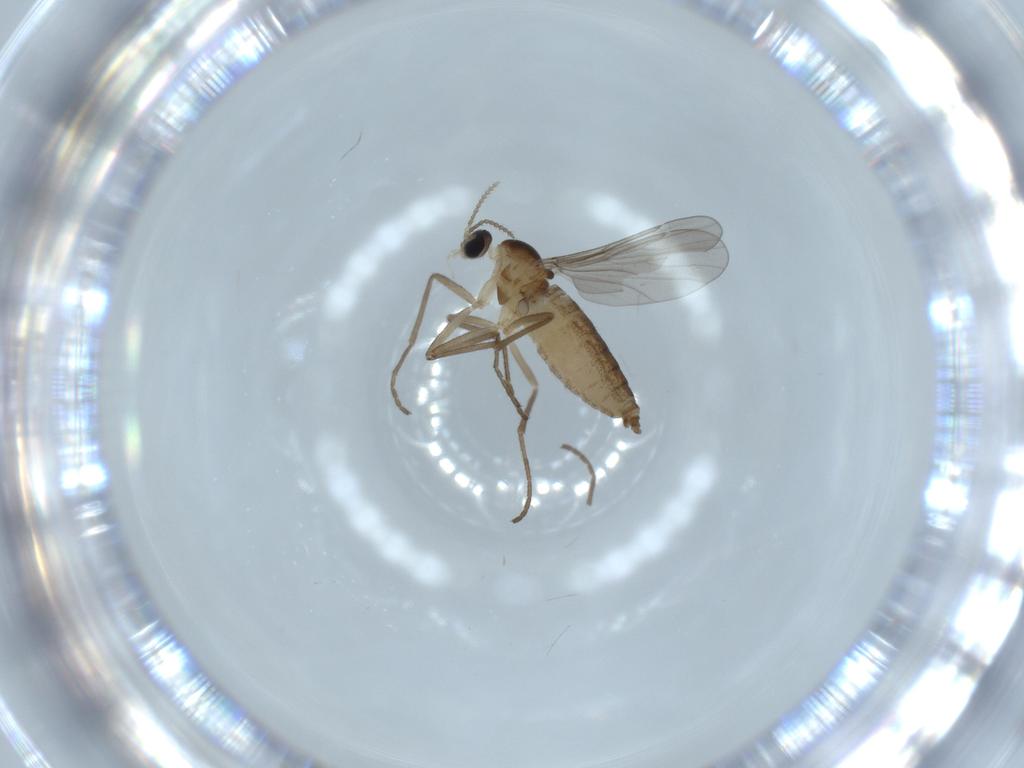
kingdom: Animalia
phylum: Arthropoda
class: Insecta
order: Diptera
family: Cecidomyiidae
